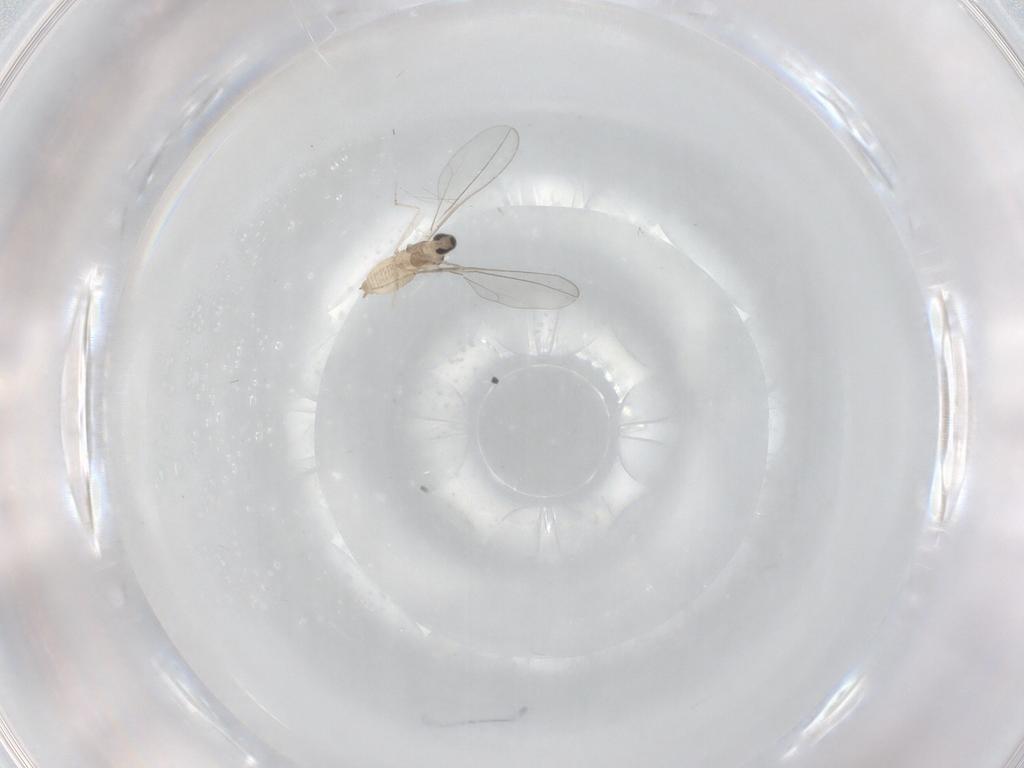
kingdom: Animalia
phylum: Arthropoda
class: Insecta
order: Diptera
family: Cecidomyiidae
